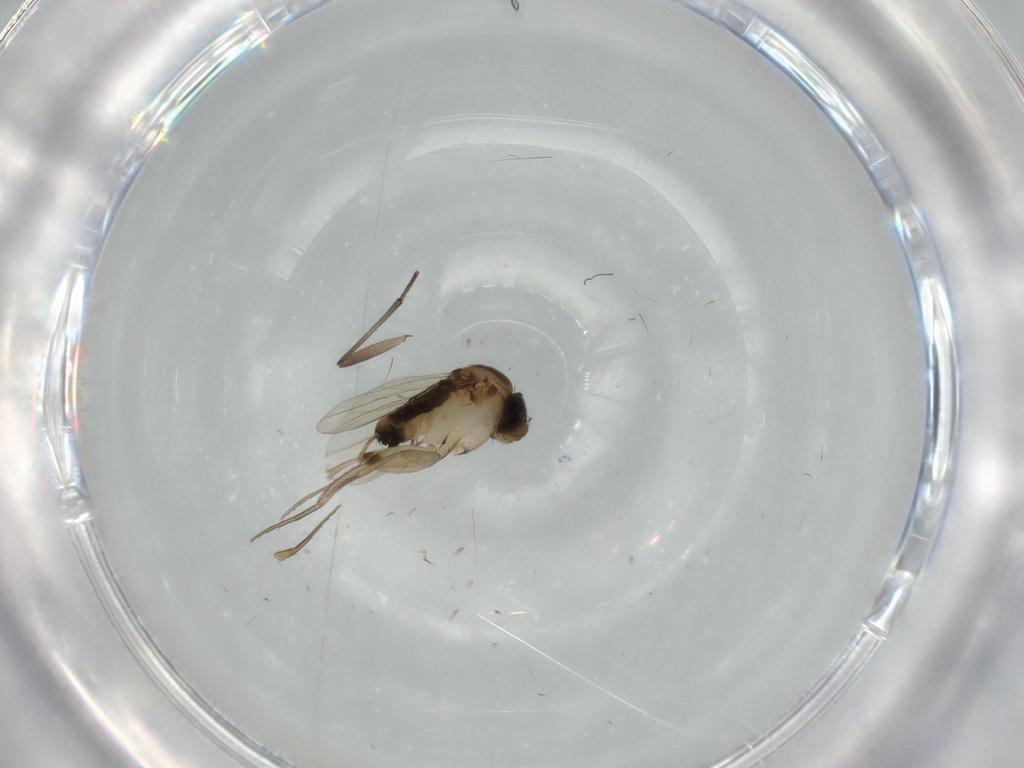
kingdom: Animalia
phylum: Arthropoda
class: Insecta
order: Diptera
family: Phoridae
